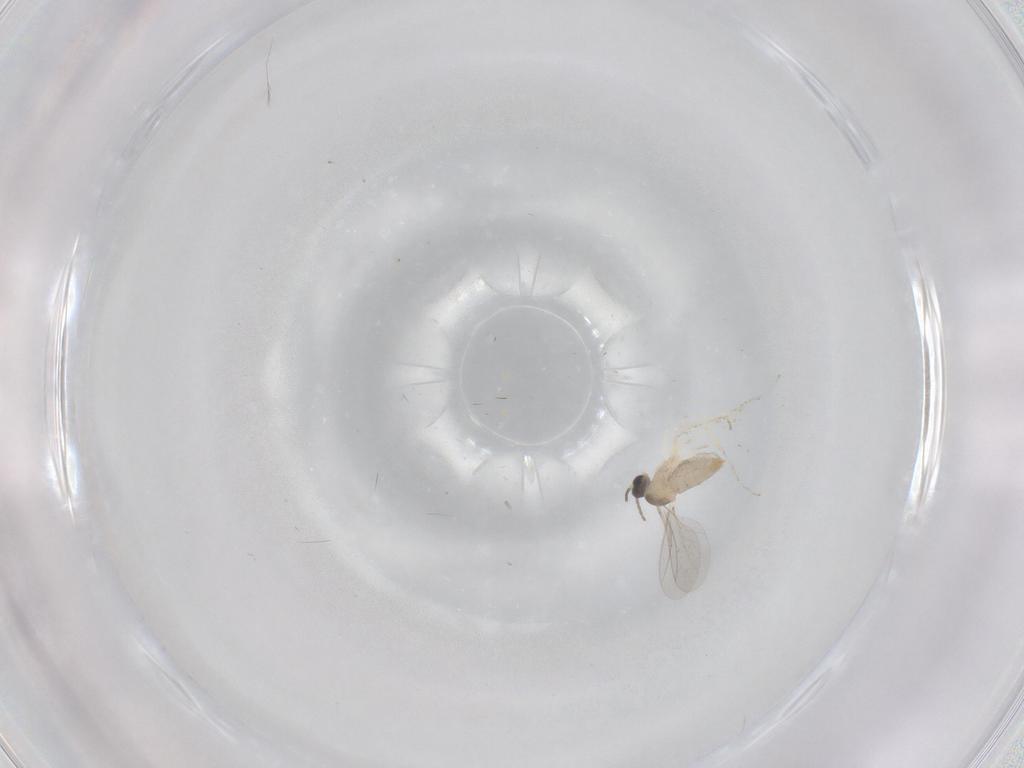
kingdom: Animalia
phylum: Arthropoda
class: Insecta
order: Diptera
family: Cecidomyiidae
